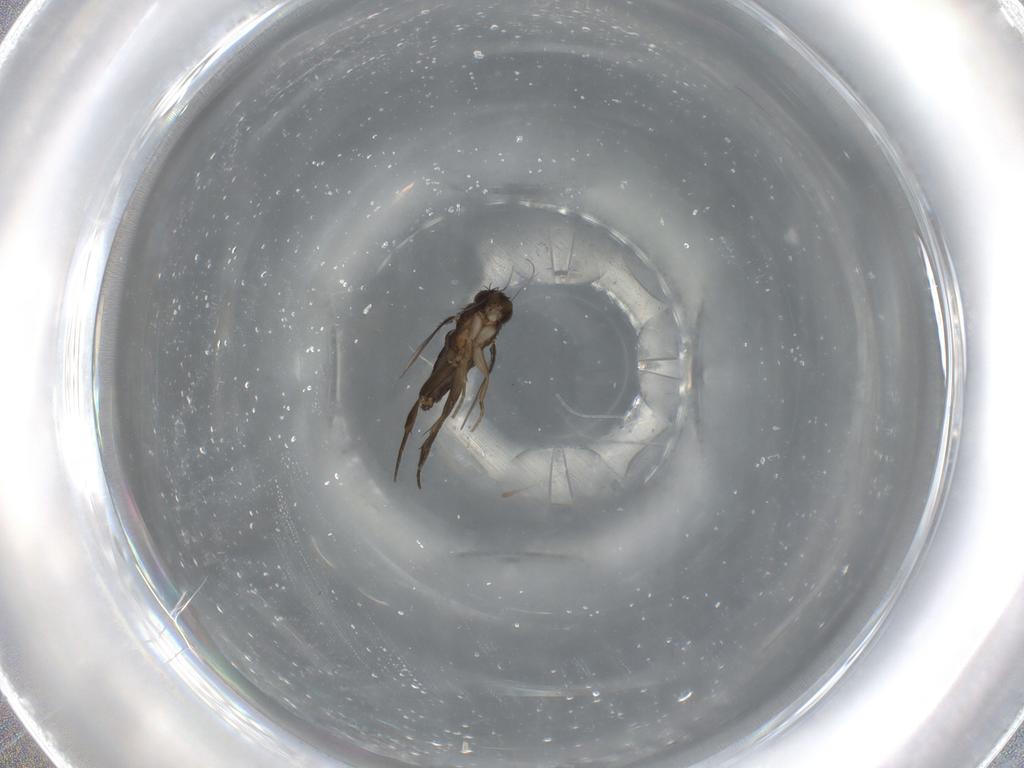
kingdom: Animalia
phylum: Arthropoda
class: Insecta
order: Diptera
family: Phoridae
